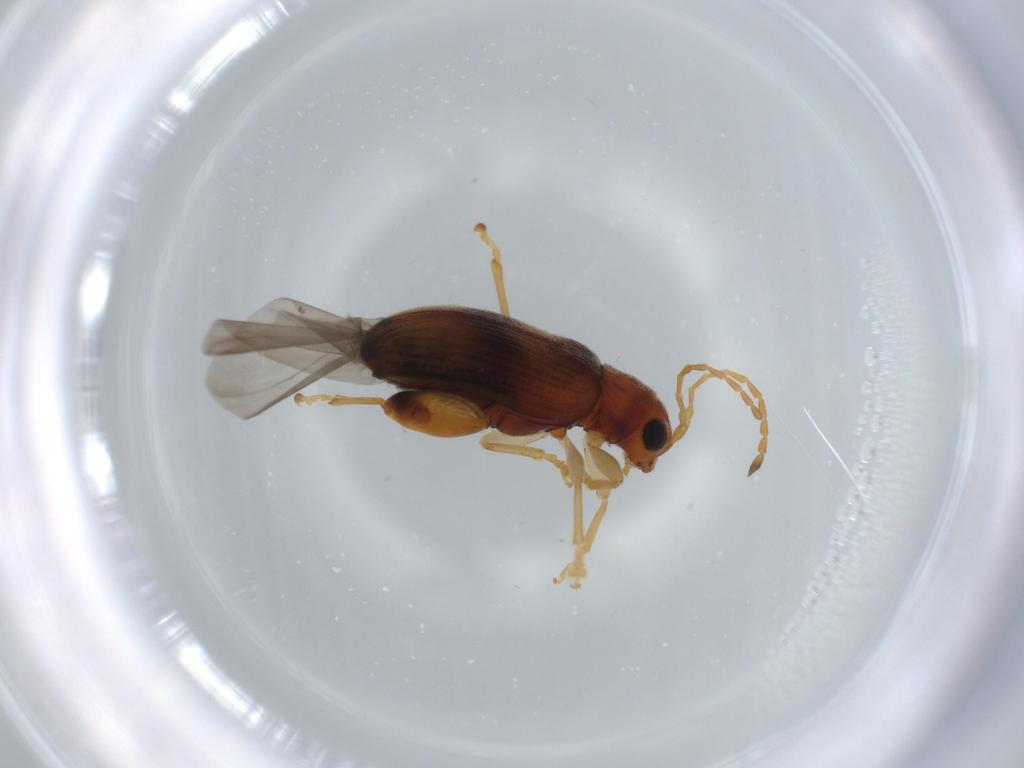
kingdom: Animalia
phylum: Arthropoda
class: Insecta
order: Coleoptera
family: Chrysomelidae
